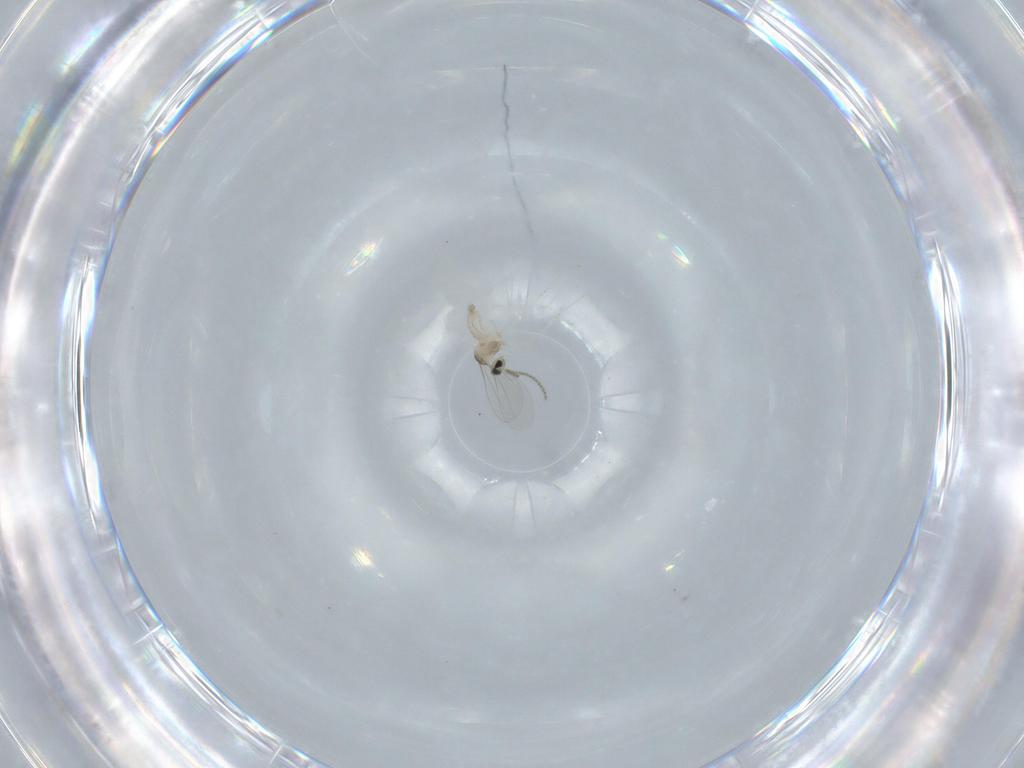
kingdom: Animalia
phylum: Arthropoda
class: Insecta
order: Diptera
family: Cecidomyiidae
